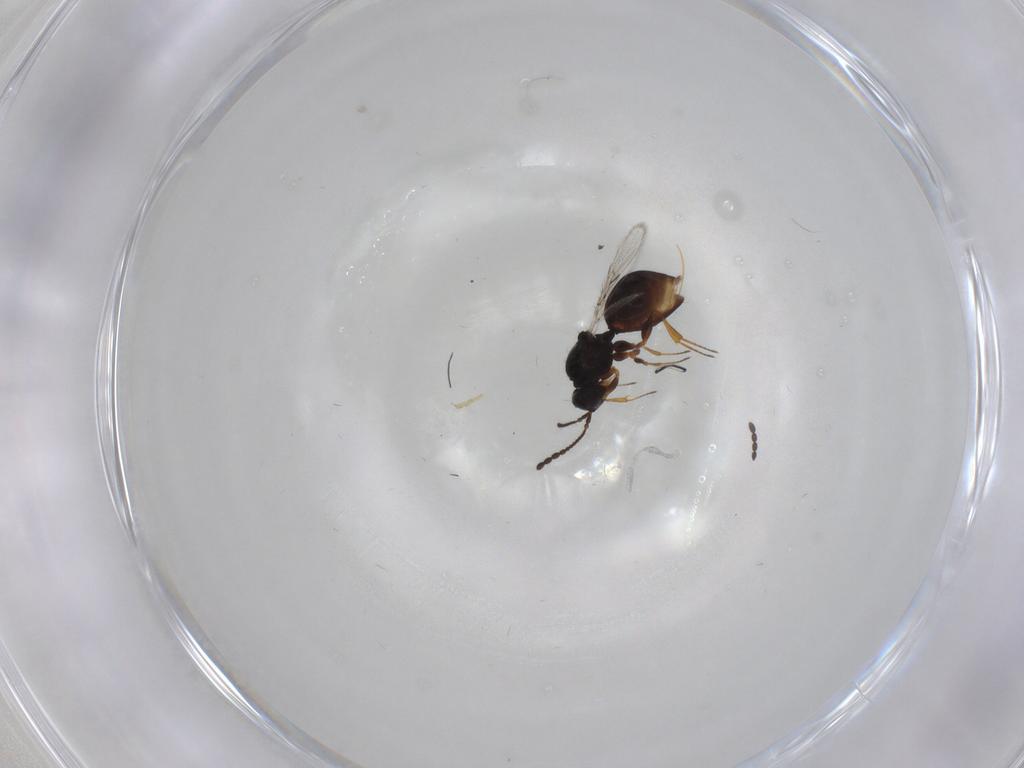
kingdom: Animalia
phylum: Arthropoda
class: Insecta
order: Hymenoptera
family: Figitidae
